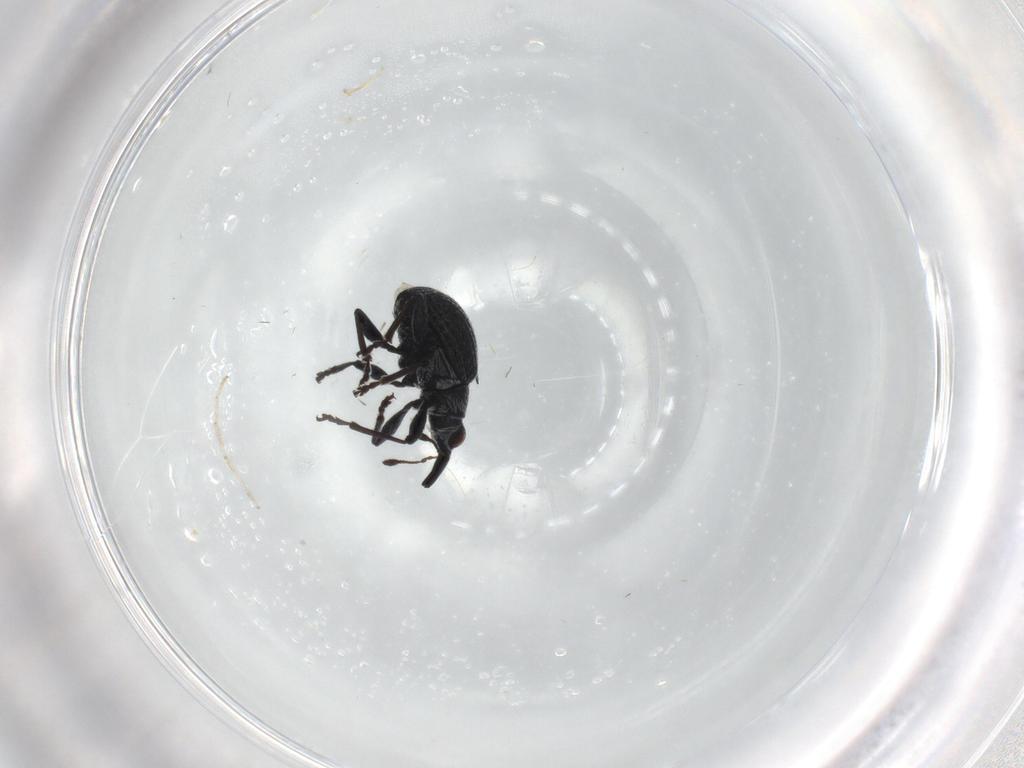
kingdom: Animalia
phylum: Arthropoda
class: Insecta
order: Coleoptera
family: Brentidae
